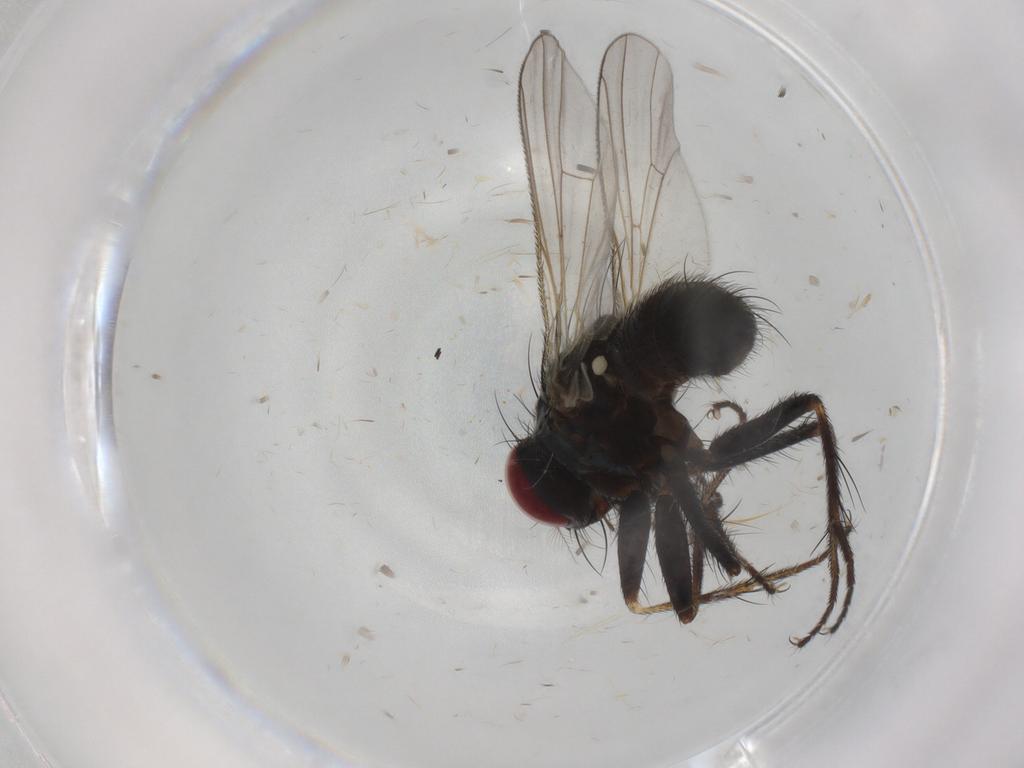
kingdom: Animalia
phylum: Arthropoda
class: Insecta
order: Diptera
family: Muscidae
